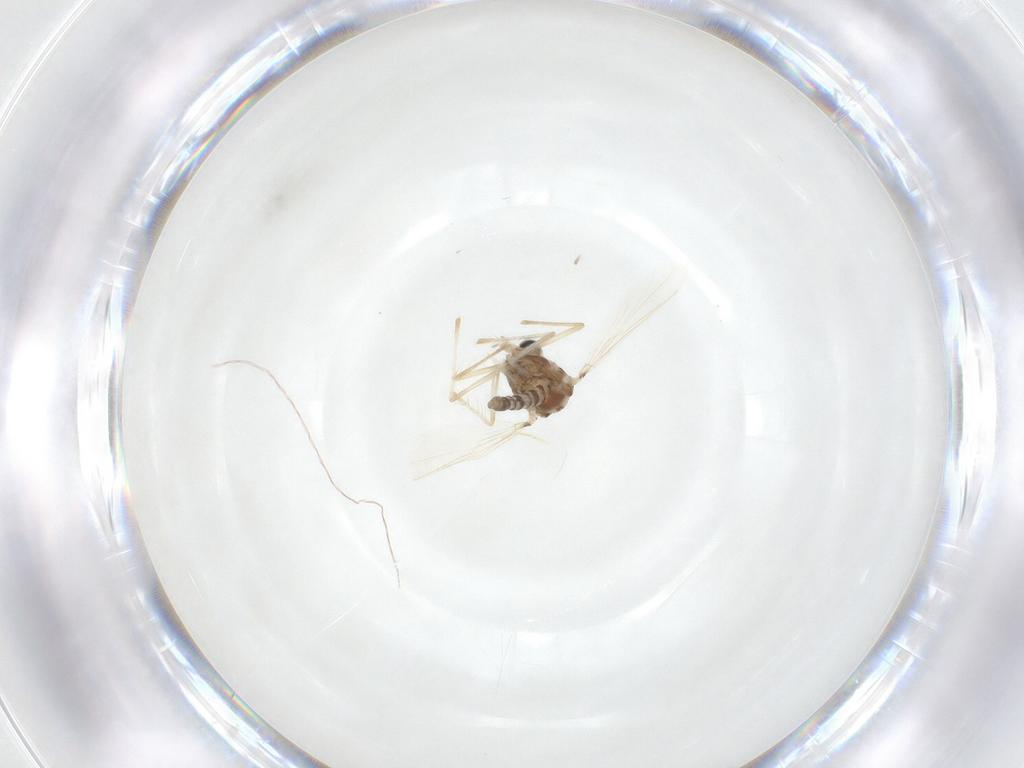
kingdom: Animalia
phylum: Arthropoda
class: Insecta
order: Diptera
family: Chironomidae
